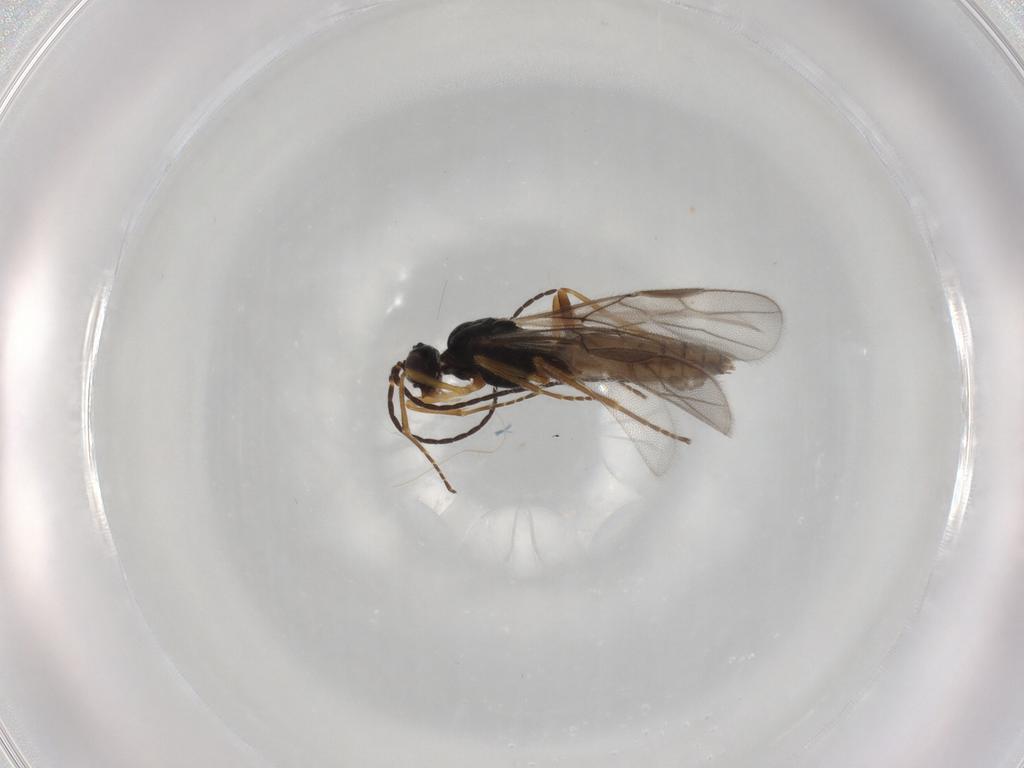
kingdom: Animalia
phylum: Arthropoda
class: Insecta
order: Hymenoptera
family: Braconidae
